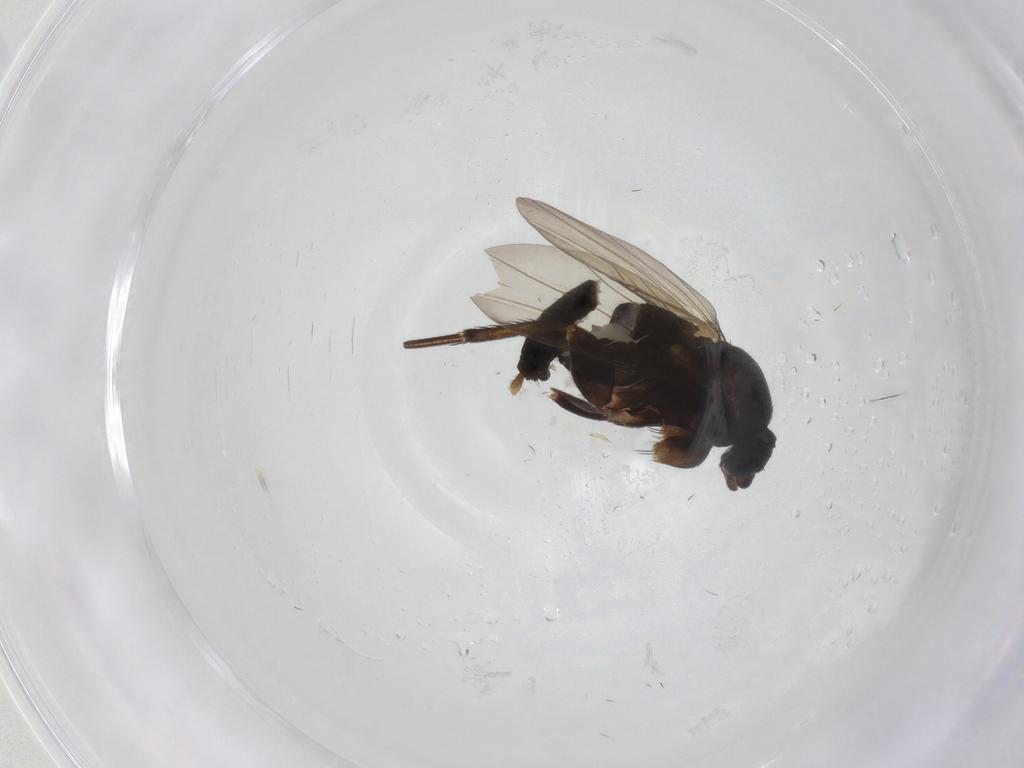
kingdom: Animalia
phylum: Arthropoda
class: Insecta
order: Diptera
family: Phoridae
